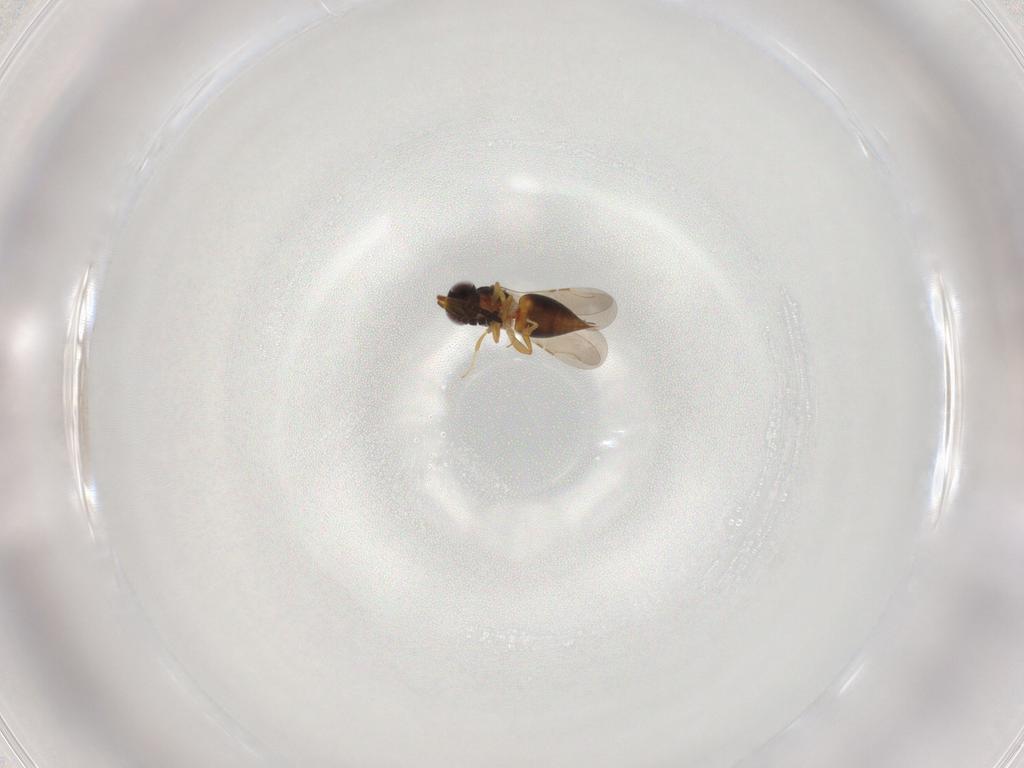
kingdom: Animalia
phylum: Arthropoda
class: Insecta
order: Hymenoptera
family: Ceraphronidae
